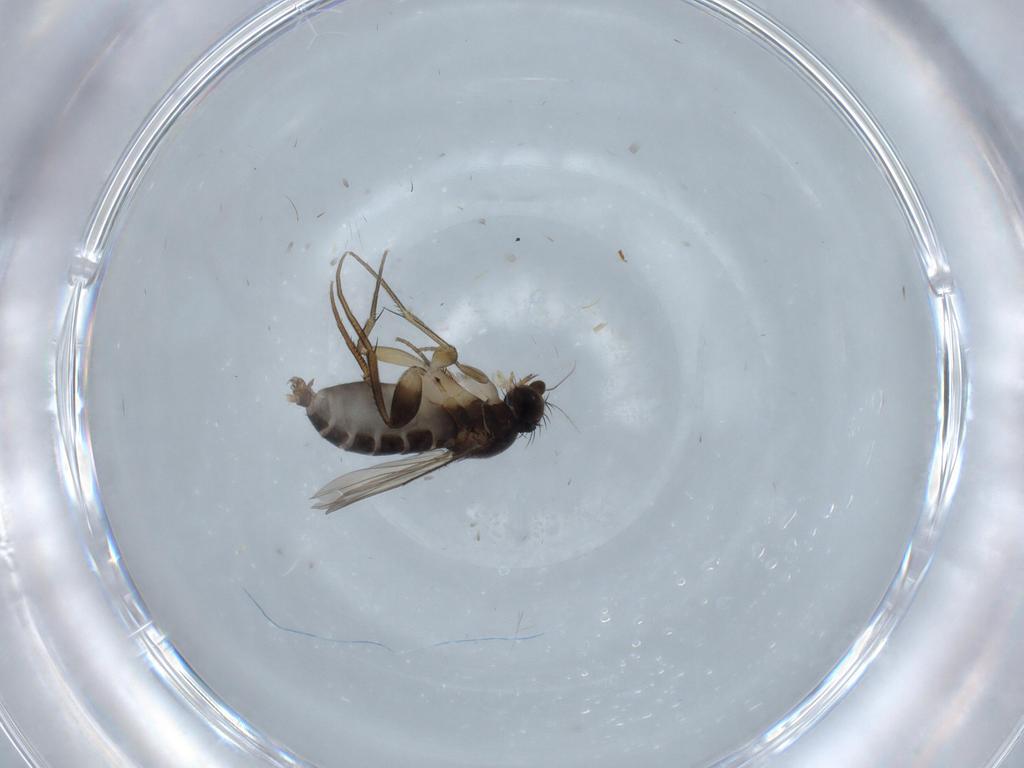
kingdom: Animalia
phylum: Arthropoda
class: Insecta
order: Diptera
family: Phoridae
